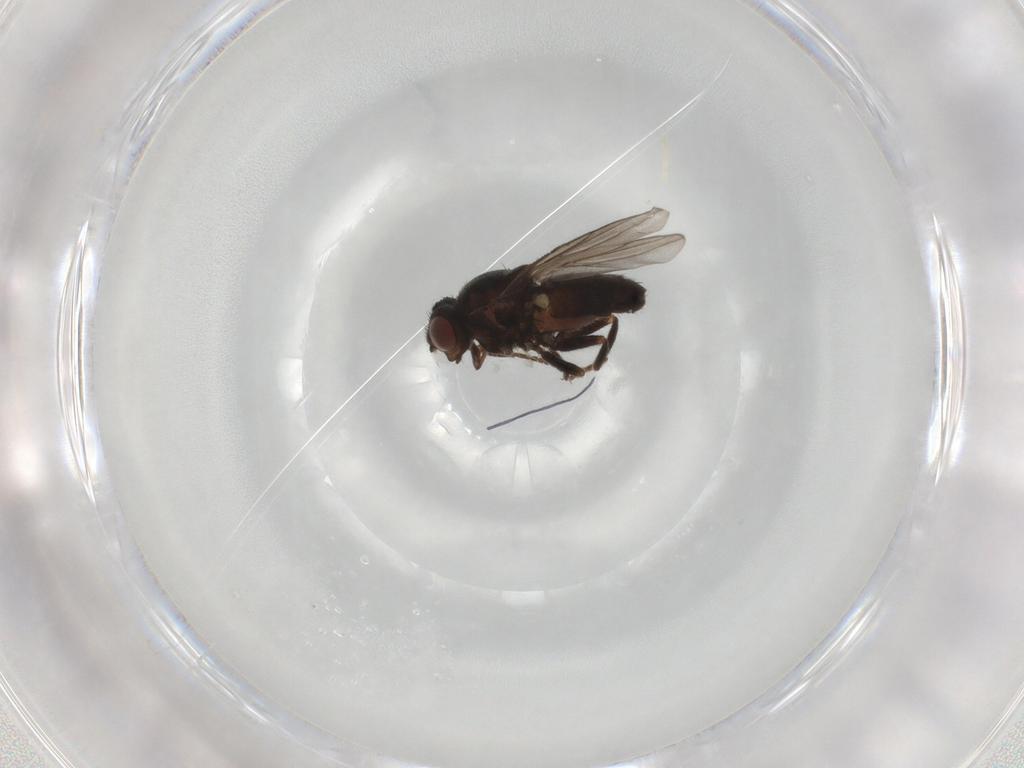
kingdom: Animalia
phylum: Arthropoda
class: Insecta
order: Diptera
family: Chloropidae
